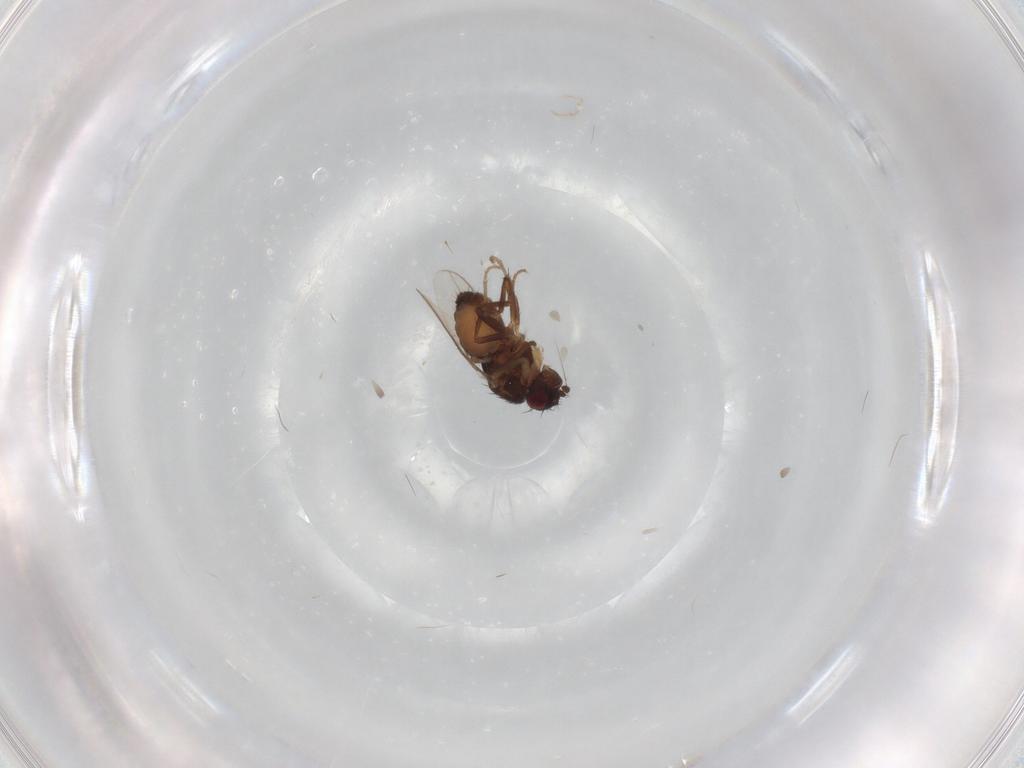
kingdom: Animalia
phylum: Arthropoda
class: Insecta
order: Diptera
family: Sphaeroceridae
